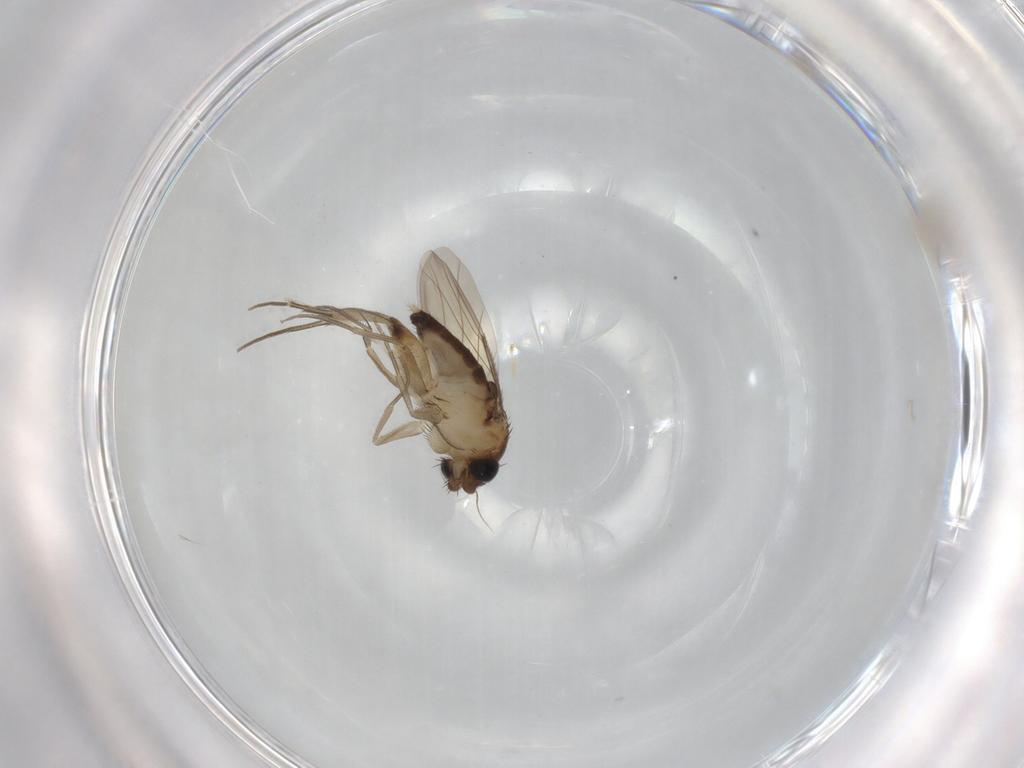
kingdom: Animalia
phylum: Arthropoda
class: Insecta
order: Diptera
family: Phoridae
